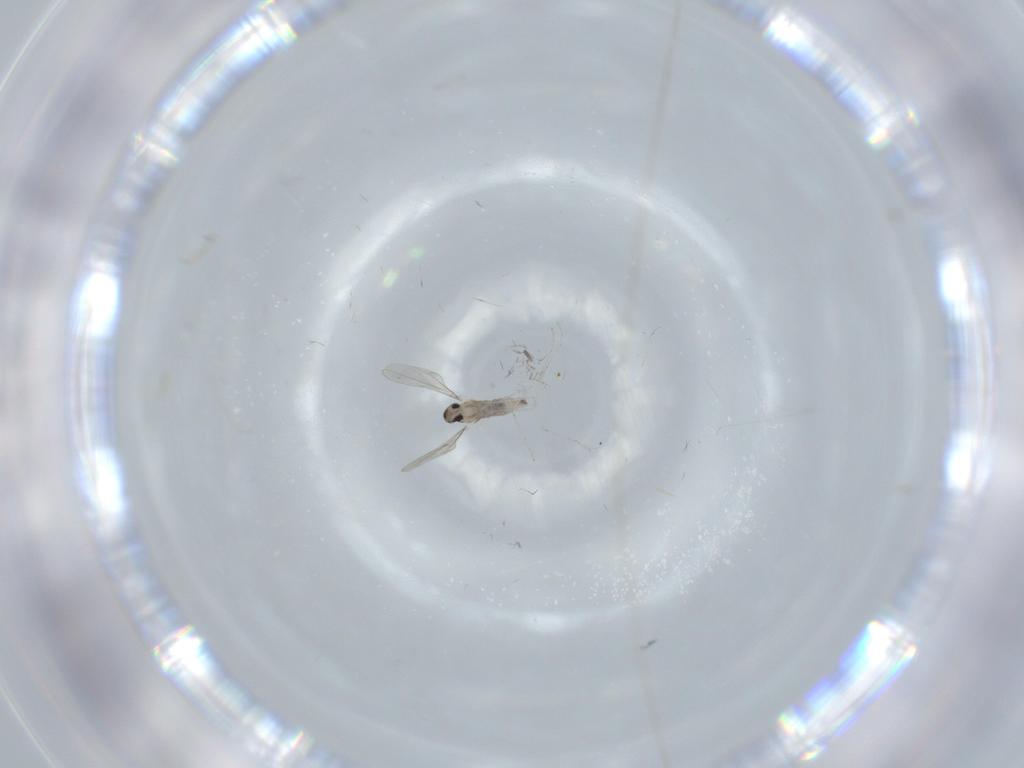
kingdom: Animalia
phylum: Arthropoda
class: Insecta
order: Diptera
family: Cecidomyiidae
